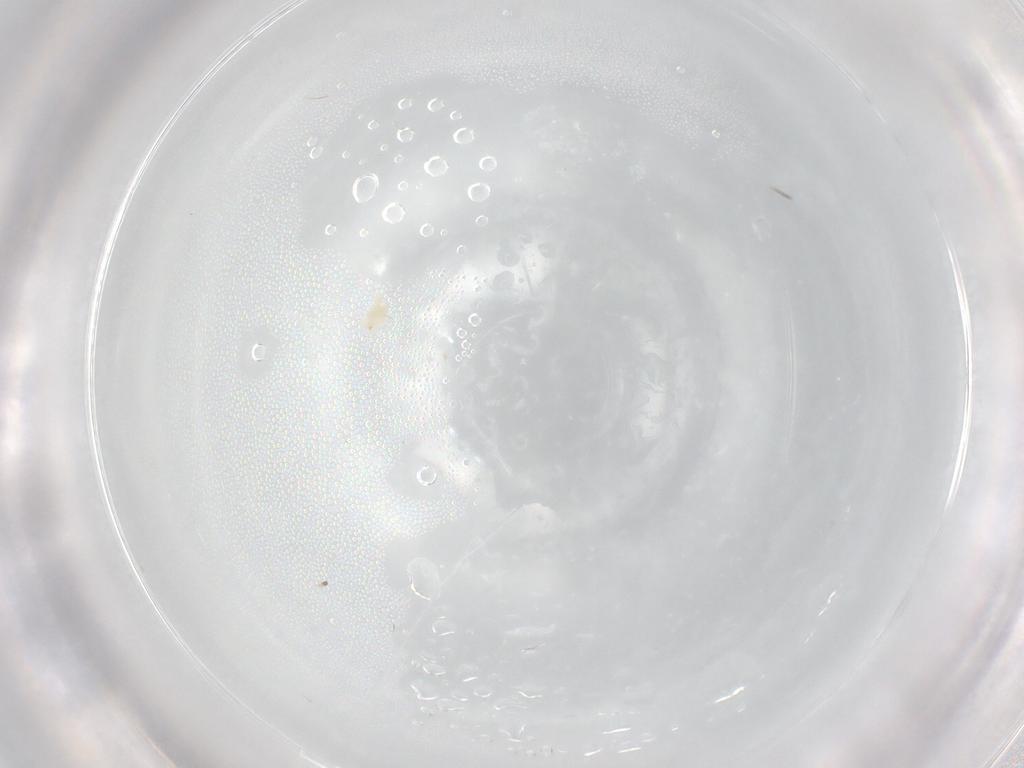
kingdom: Animalia
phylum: Arthropoda
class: Arachnida
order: Trombidiformes
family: Tetranychidae
